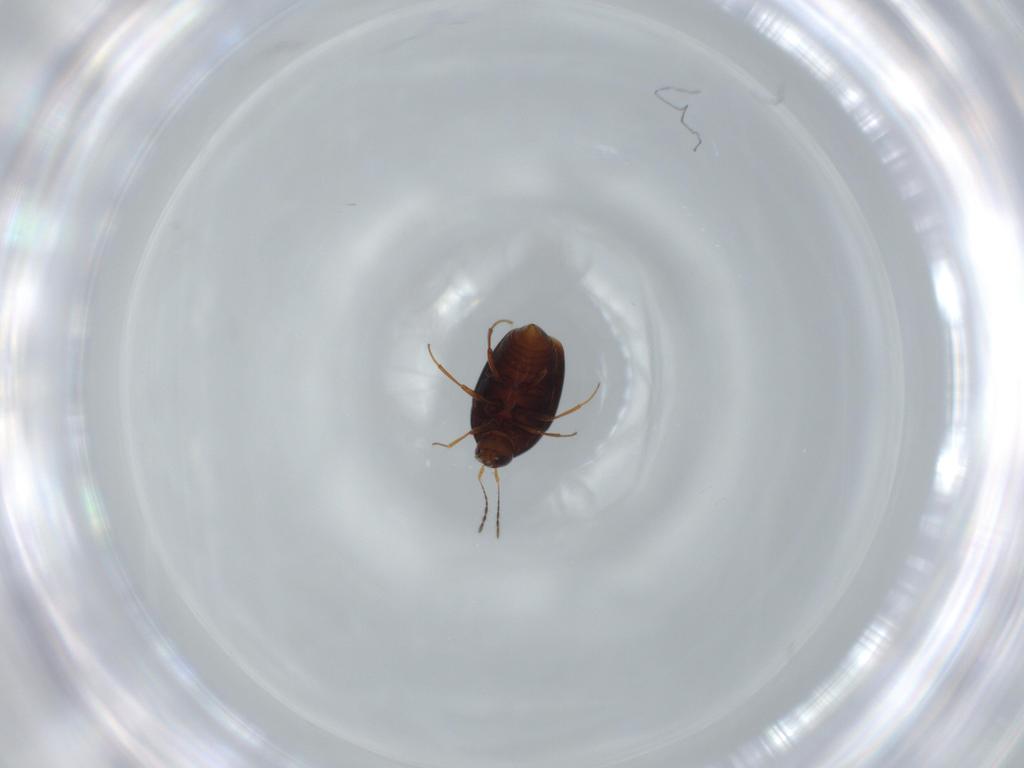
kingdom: Animalia
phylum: Arthropoda
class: Insecta
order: Coleoptera
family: Staphylinidae
